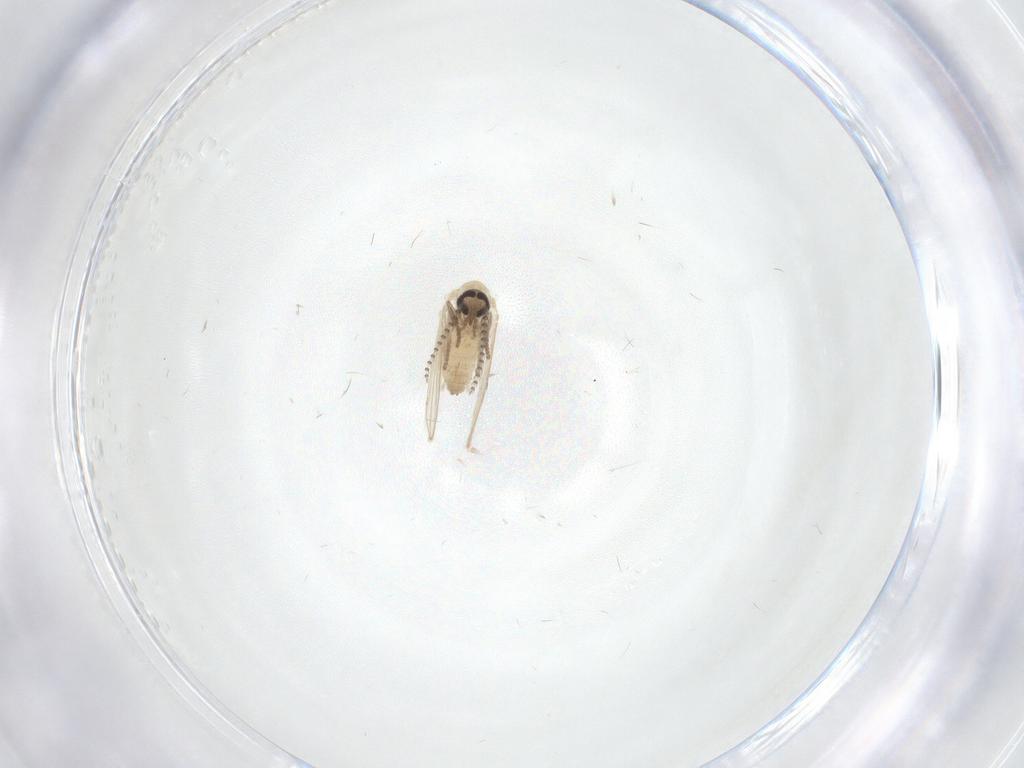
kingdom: Animalia
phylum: Arthropoda
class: Insecta
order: Diptera
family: Psychodidae
